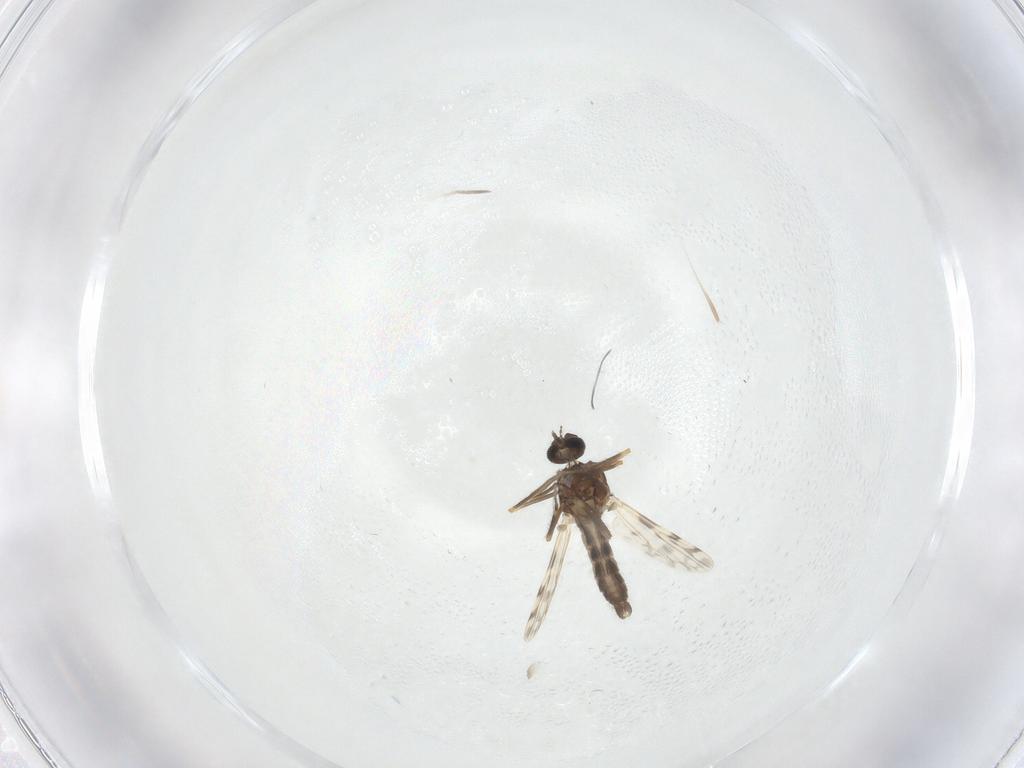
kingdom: Animalia
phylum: Arthropoda
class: Insecta
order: Diptera
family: Ceratopogonidae
